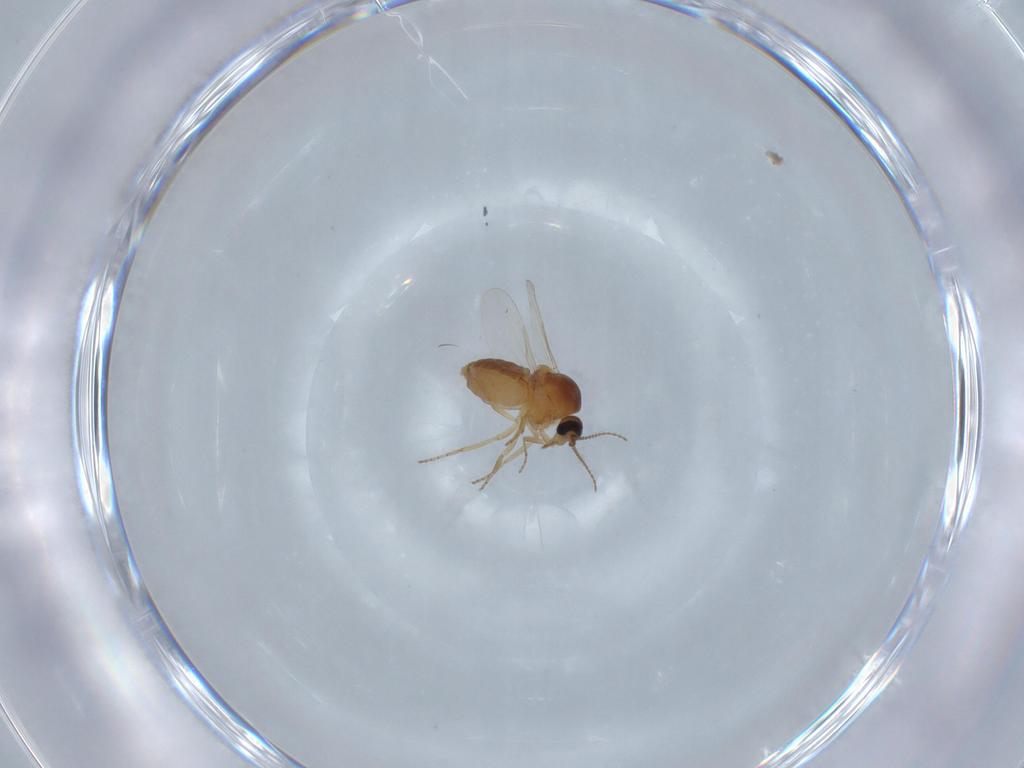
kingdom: Animalia
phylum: Arthropoda
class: Insecta
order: Diptera
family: Ceratopogonidae
